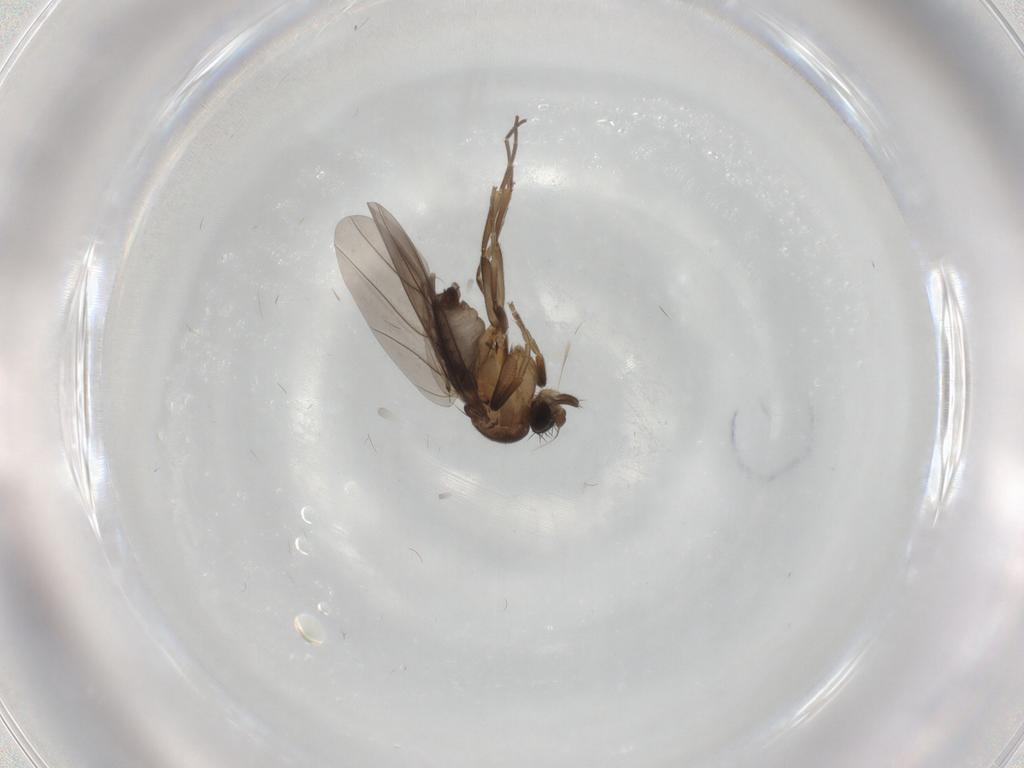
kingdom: Animalia
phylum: Arthropoda
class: Insecta
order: Diptera
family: Phoridae
